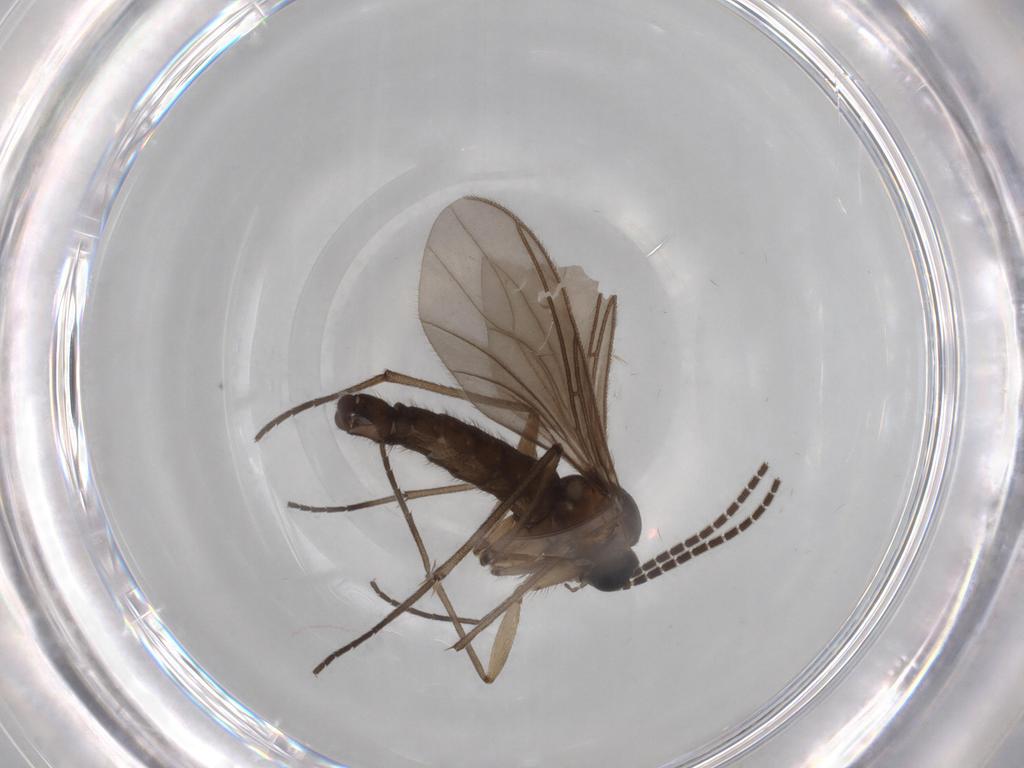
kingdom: Animalia
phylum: Arthropoda
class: Insecta
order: Diptera
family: Sciaridae
